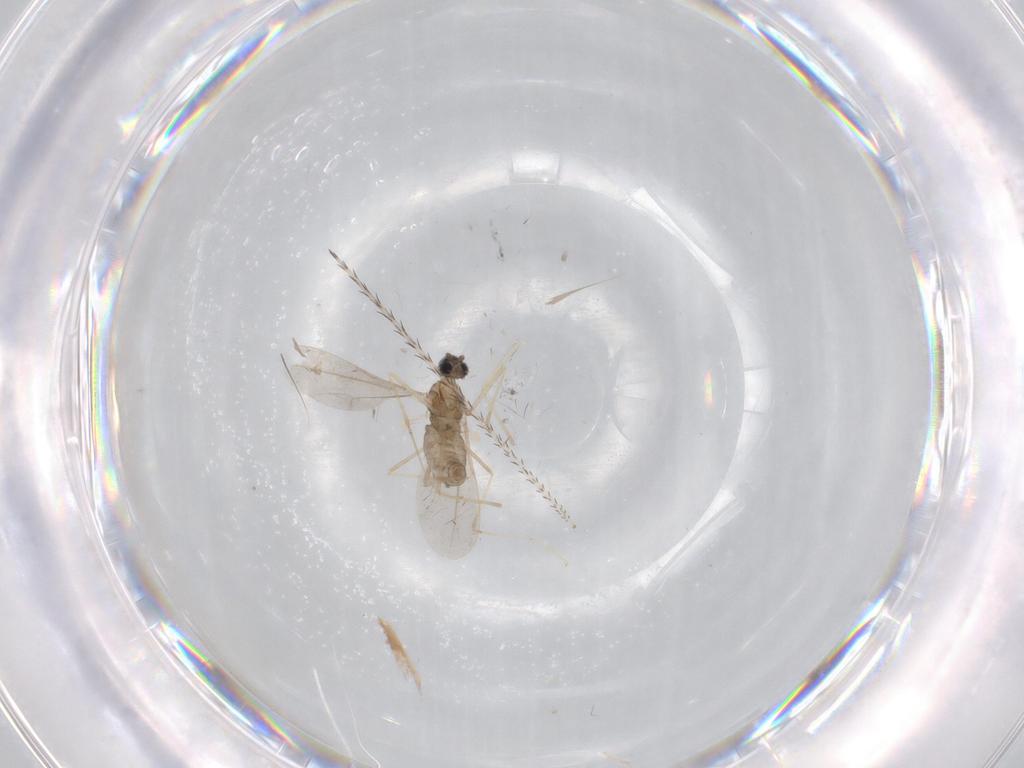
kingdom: Animalia
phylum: Arthropoda
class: Insecta
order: Diptera
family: Cecidomyiidae
